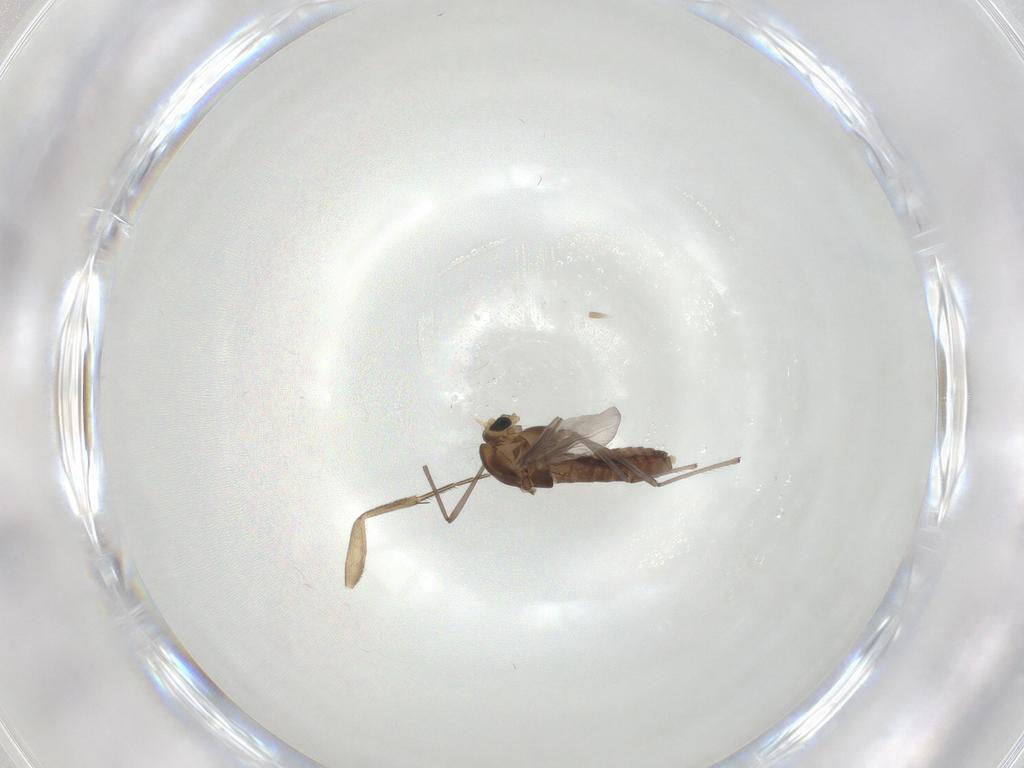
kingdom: Animalia
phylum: Arthropoda
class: Insecta
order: Diptera
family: Chironomidae
